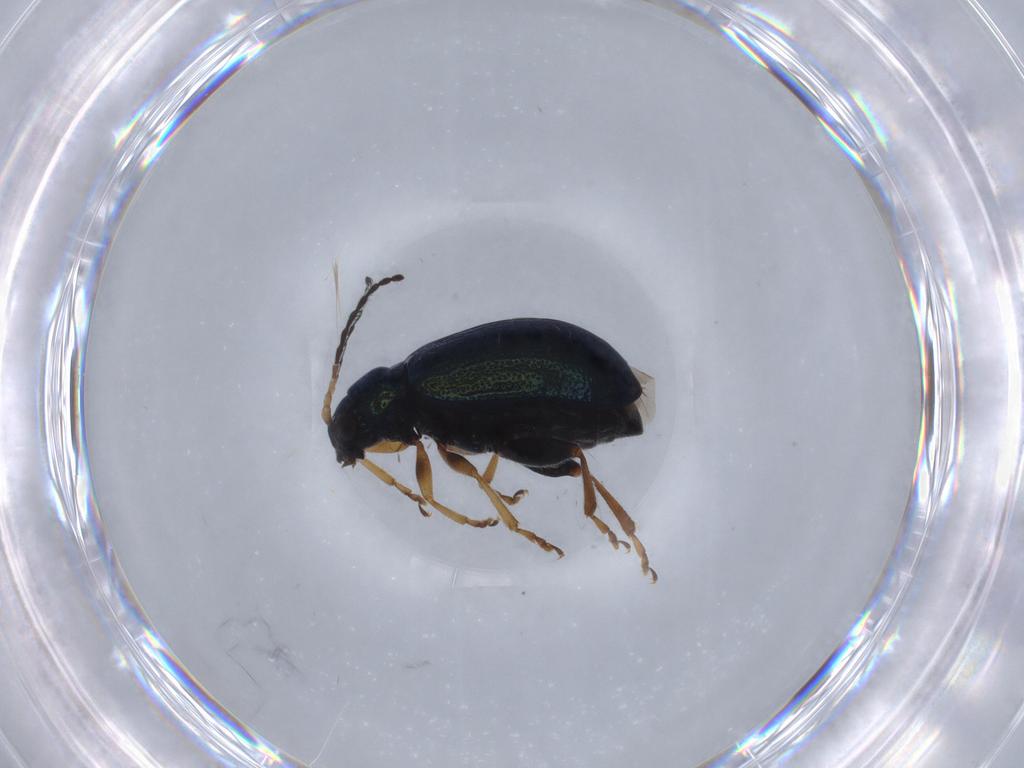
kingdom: Animalia
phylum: Arthropoda
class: Insecta
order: Coleoptera
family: Chrysomelidae
